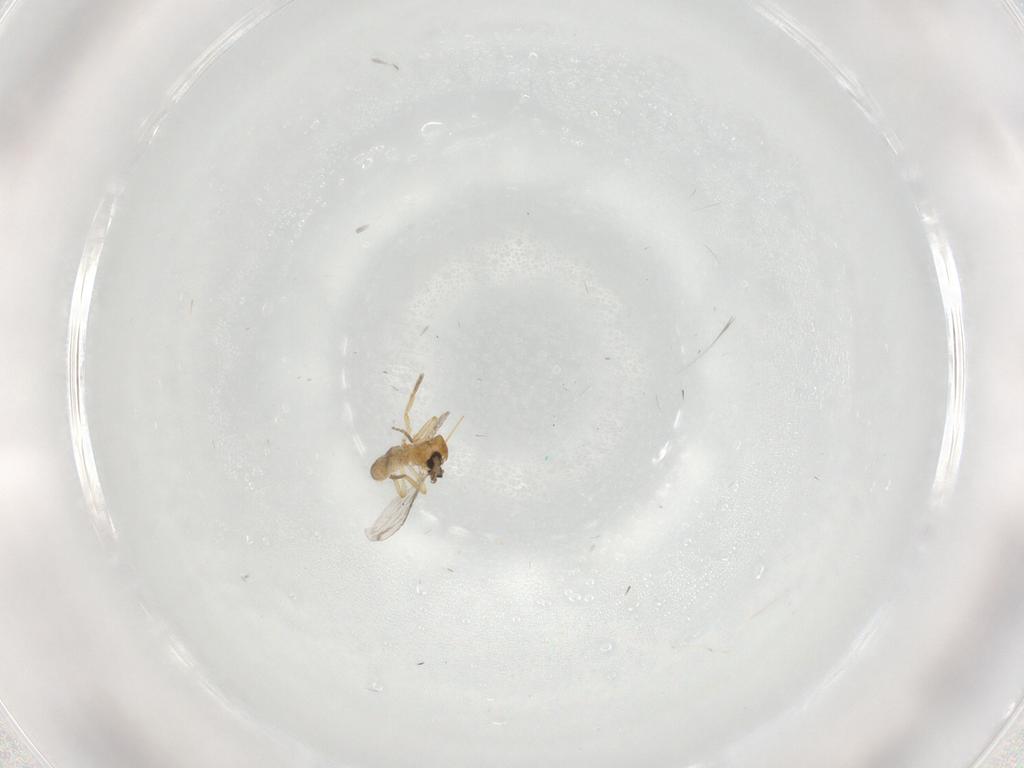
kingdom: Animalia
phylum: Arthropoda
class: Insecta
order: Diptera
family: Ceratopogonidae
